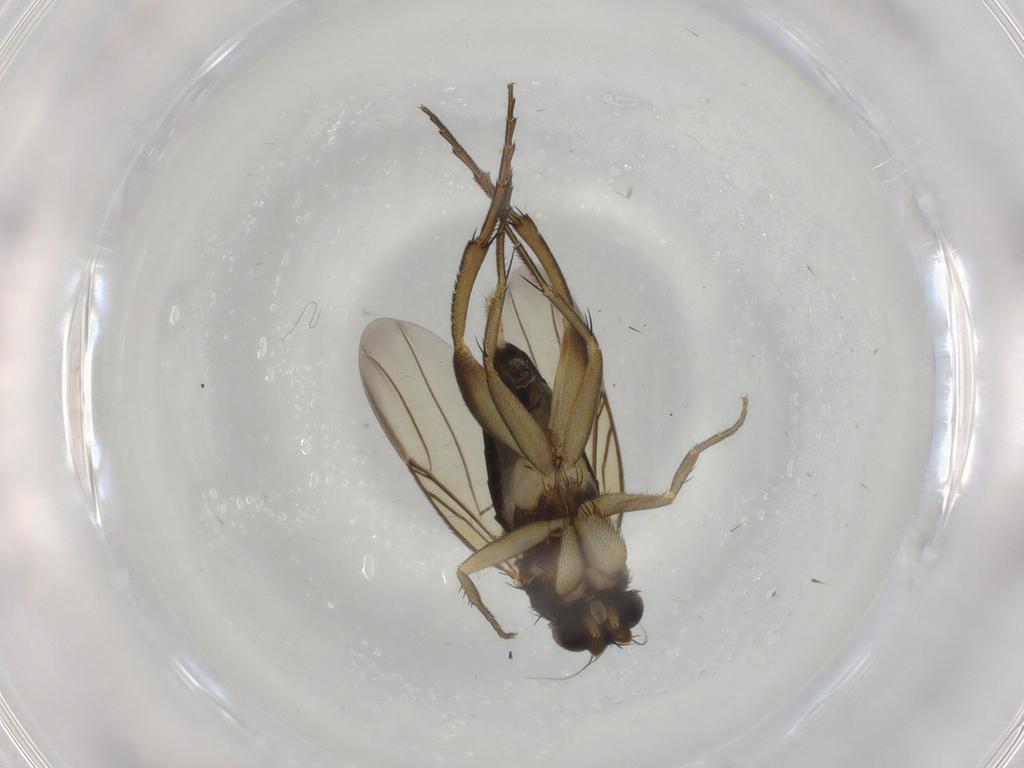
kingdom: Animalia
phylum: Arthropoda
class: Insecta
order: Diptera
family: Phoridae
